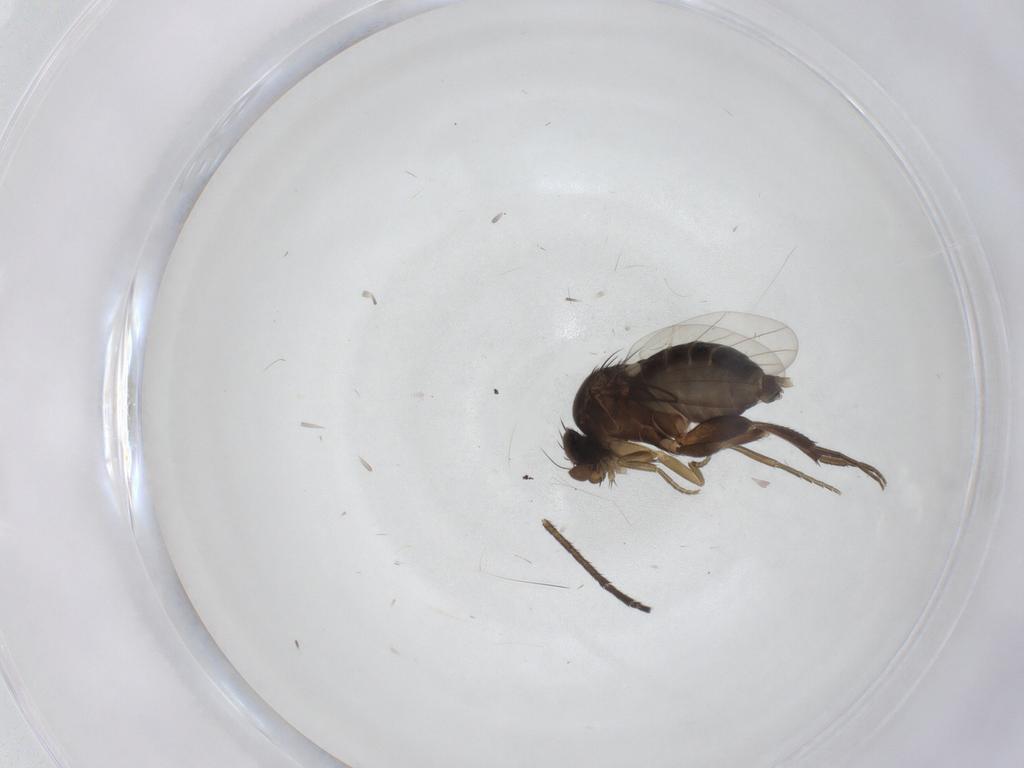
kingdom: Animalia
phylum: Arthropoda
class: Insecta
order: Diptera
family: Phoridae
